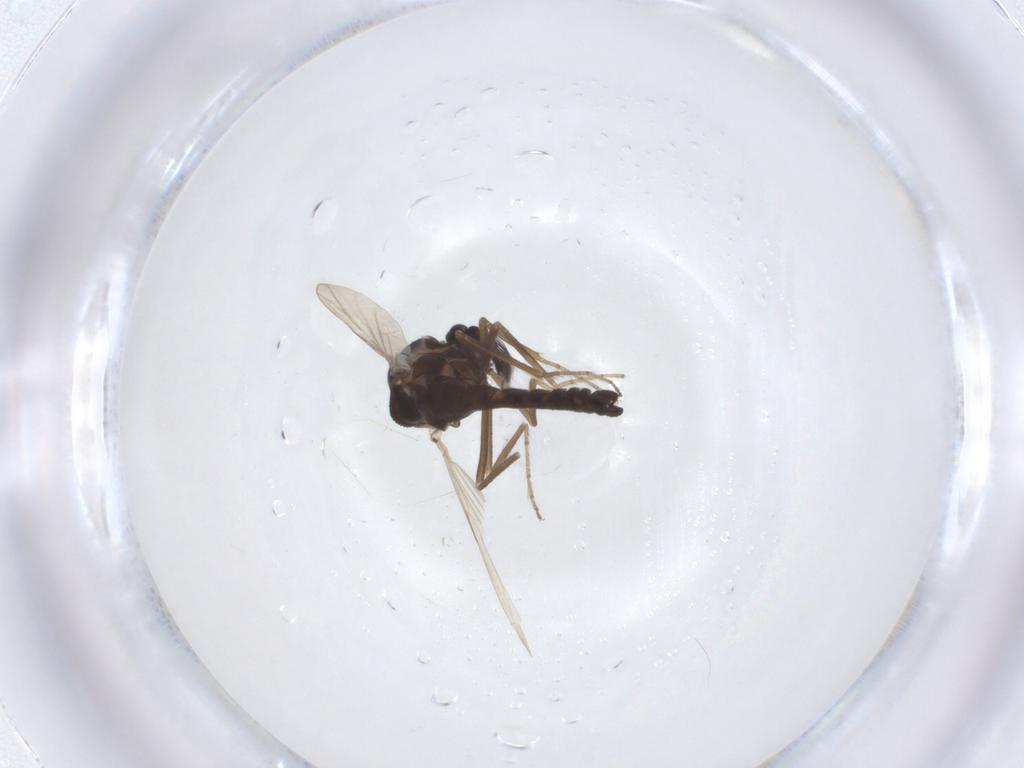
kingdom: Animalia
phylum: Arthropoda
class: Insecta
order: Diptera
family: Ceratopogonidae
